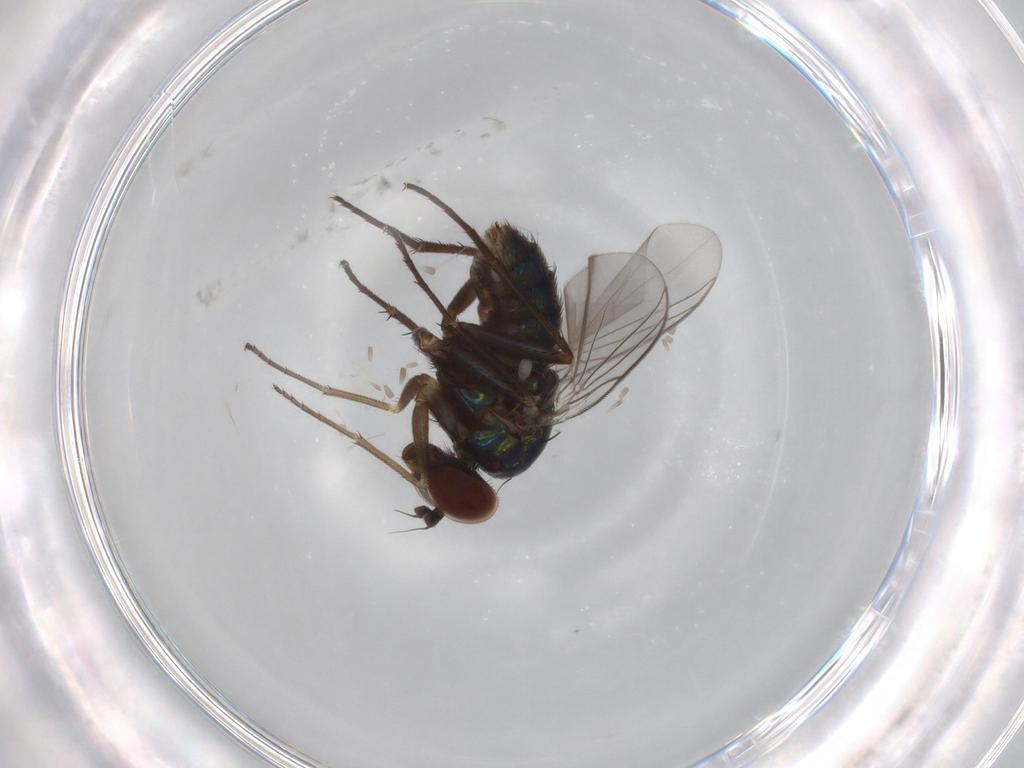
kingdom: Animalia
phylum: Arthropoda
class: Insecta
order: Diptera
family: Dolichopodidae
